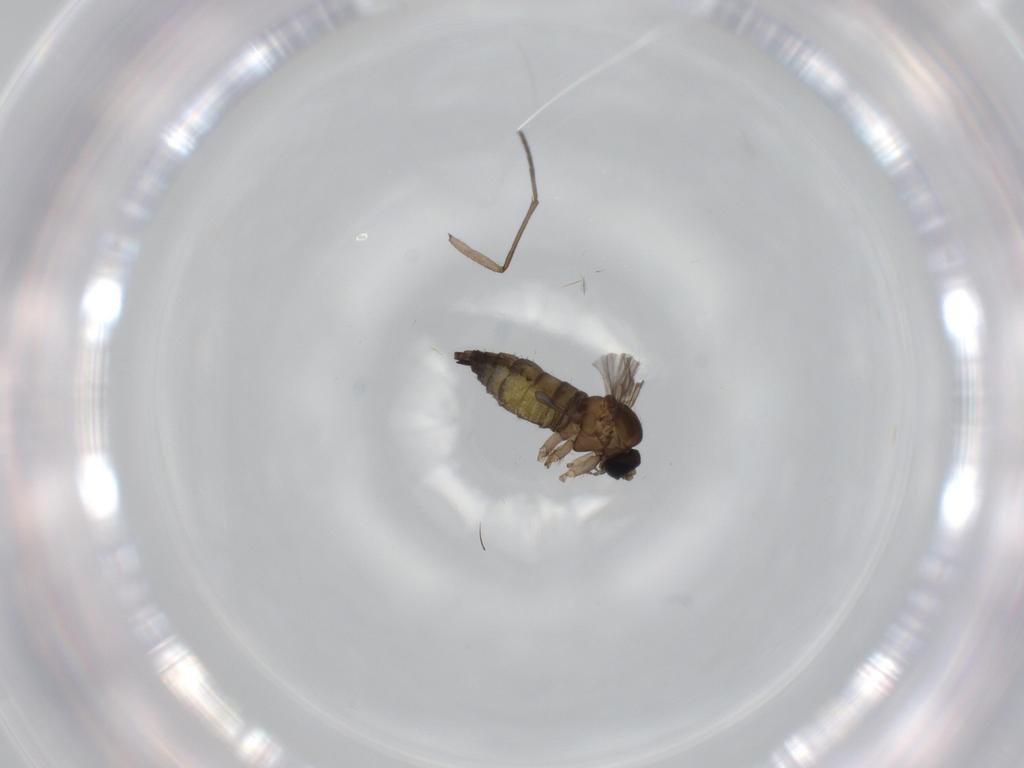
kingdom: Animalia
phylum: Arthropoda
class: Insecta
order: Diptera
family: Sciaridae
